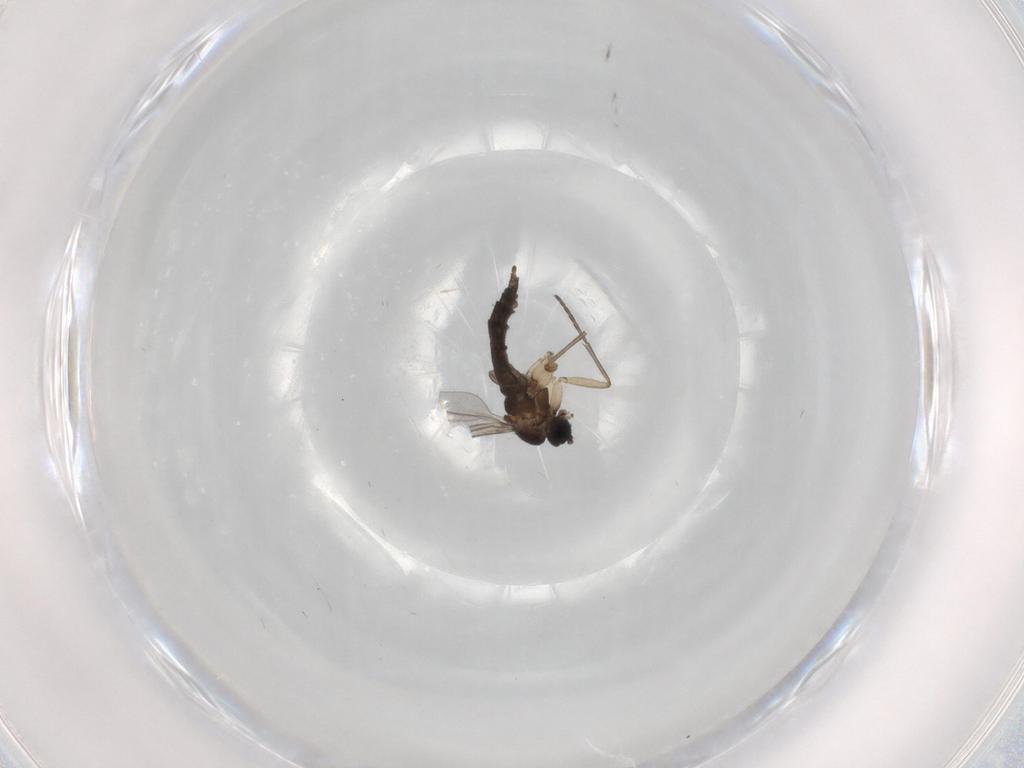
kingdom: Animalia
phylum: Arthropoda
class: Insecta
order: Diptera
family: Sciaridae
